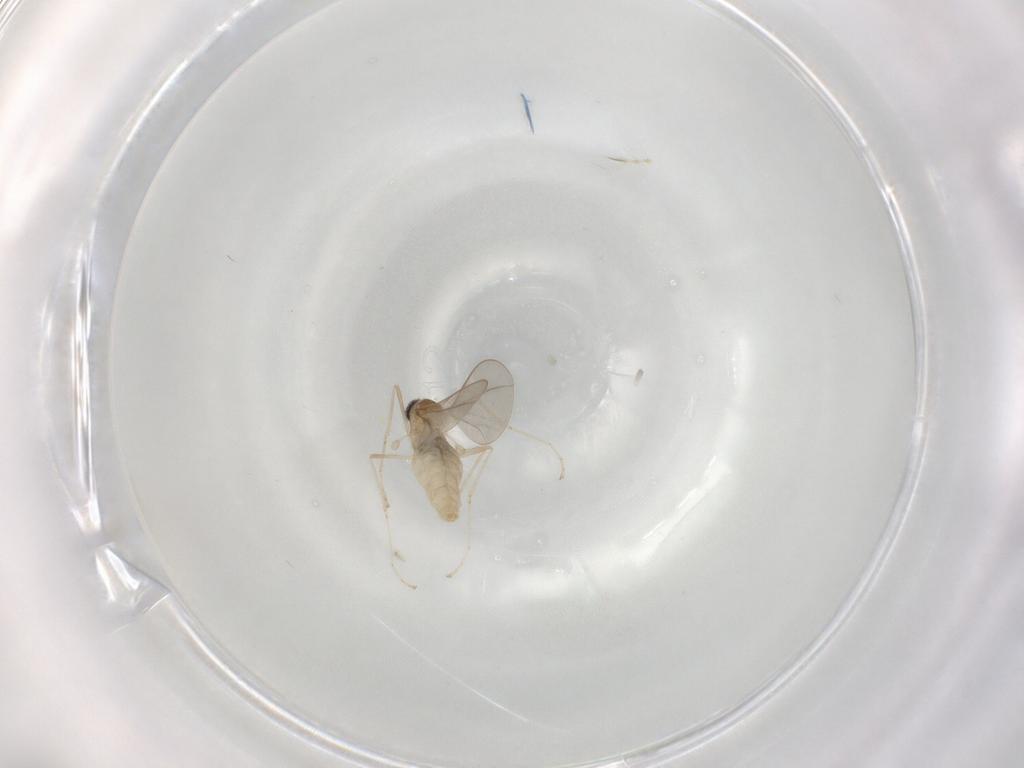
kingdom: Animalia
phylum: Arthropoda
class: Insecta
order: Diptera
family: Cecidomyiidae
